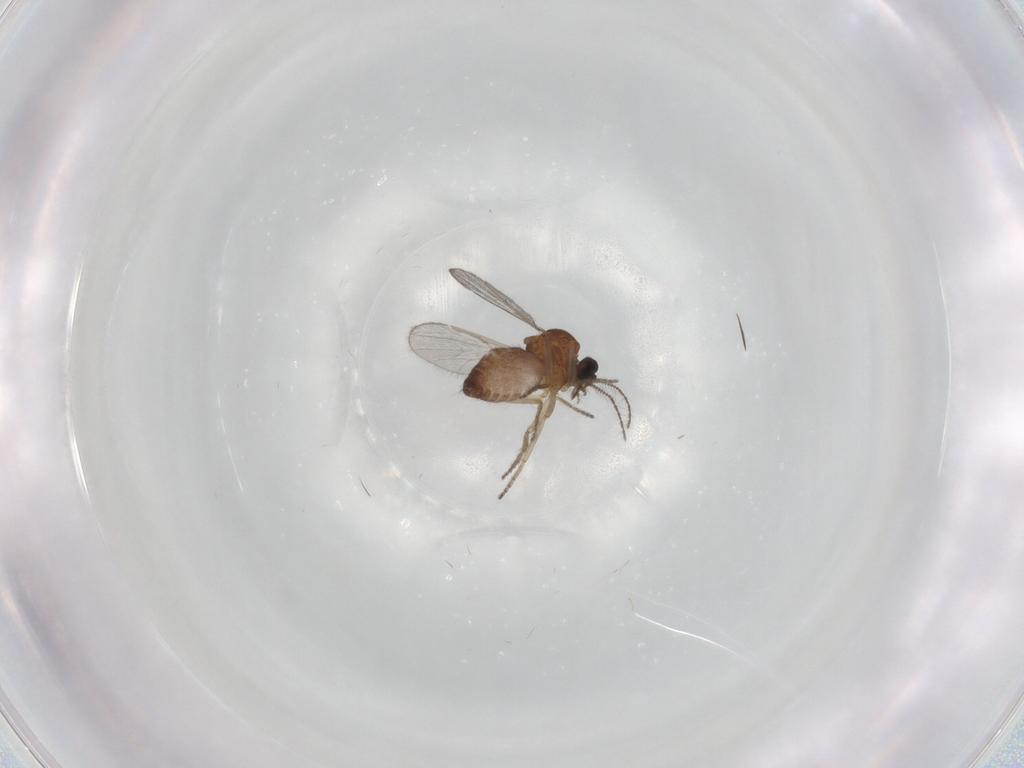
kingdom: Animalia
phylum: Arthropoda
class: Insecta
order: Diptera
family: Ceratopogonidae
